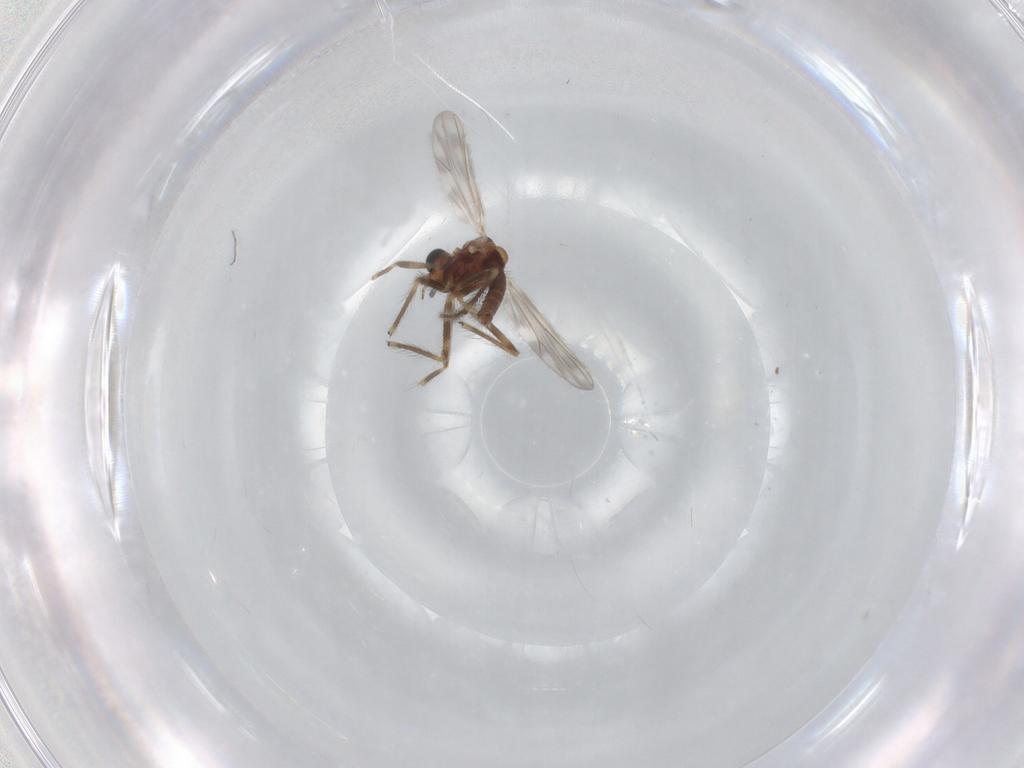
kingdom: Animalia
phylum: Arthropoda
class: Insecta
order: Diptera
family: Chironomidae
